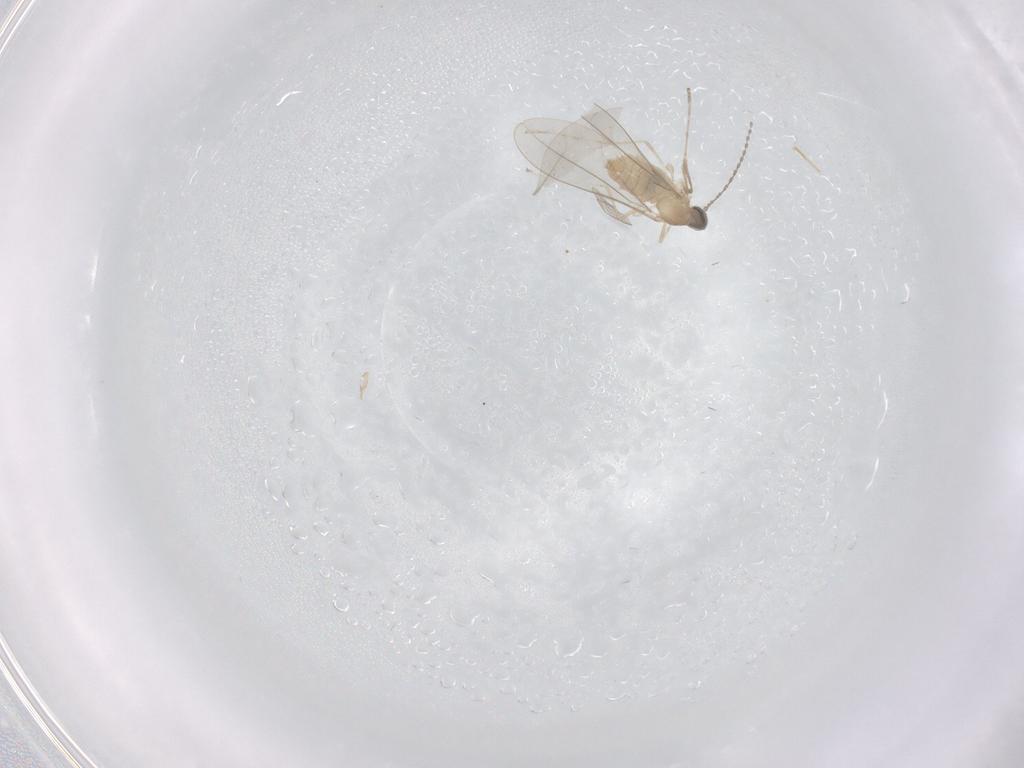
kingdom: Animalia
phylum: Arthropoda
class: Insecta
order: Diptera
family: Cecidomyiidae
